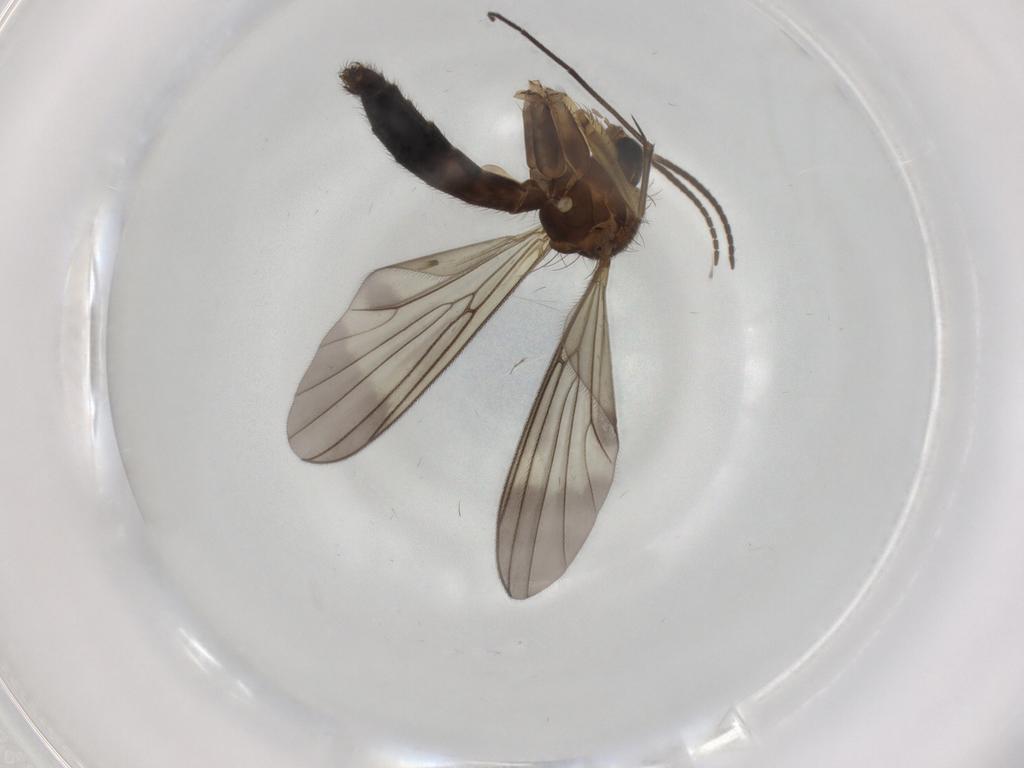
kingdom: Animalia
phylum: Arthropoda
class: Insecta
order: Diptera
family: Mycetophilidae
